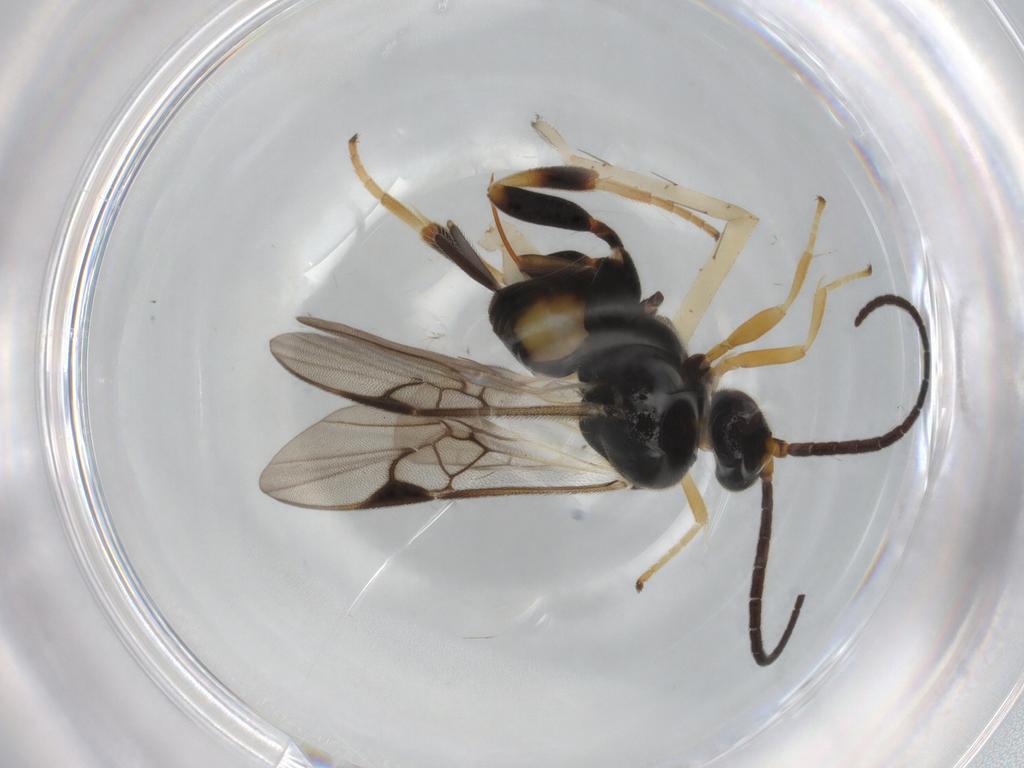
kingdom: Animalia
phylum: Arthropoda
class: Insecta
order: Hymenoptera
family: Braconidae
